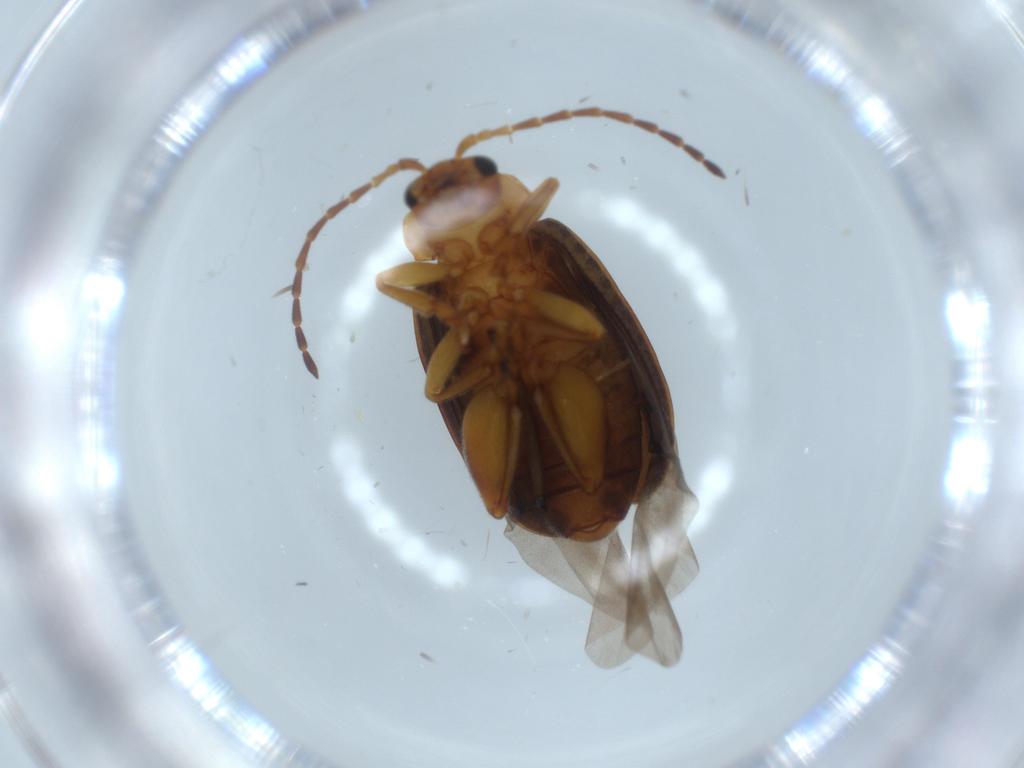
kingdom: Animalia
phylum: Arthropoda
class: Insecta
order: Coleoptera
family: Chrysomelidae
